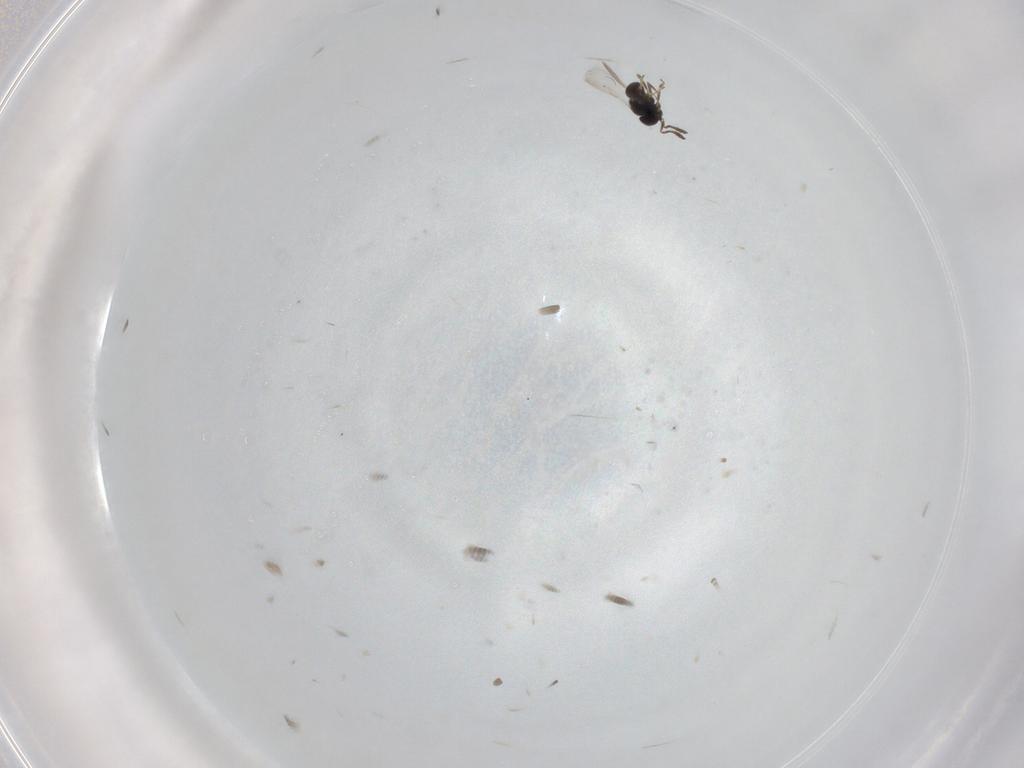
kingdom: Animalia
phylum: Arthropoda
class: Insecta
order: Hymenoptera
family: Scelionidae
